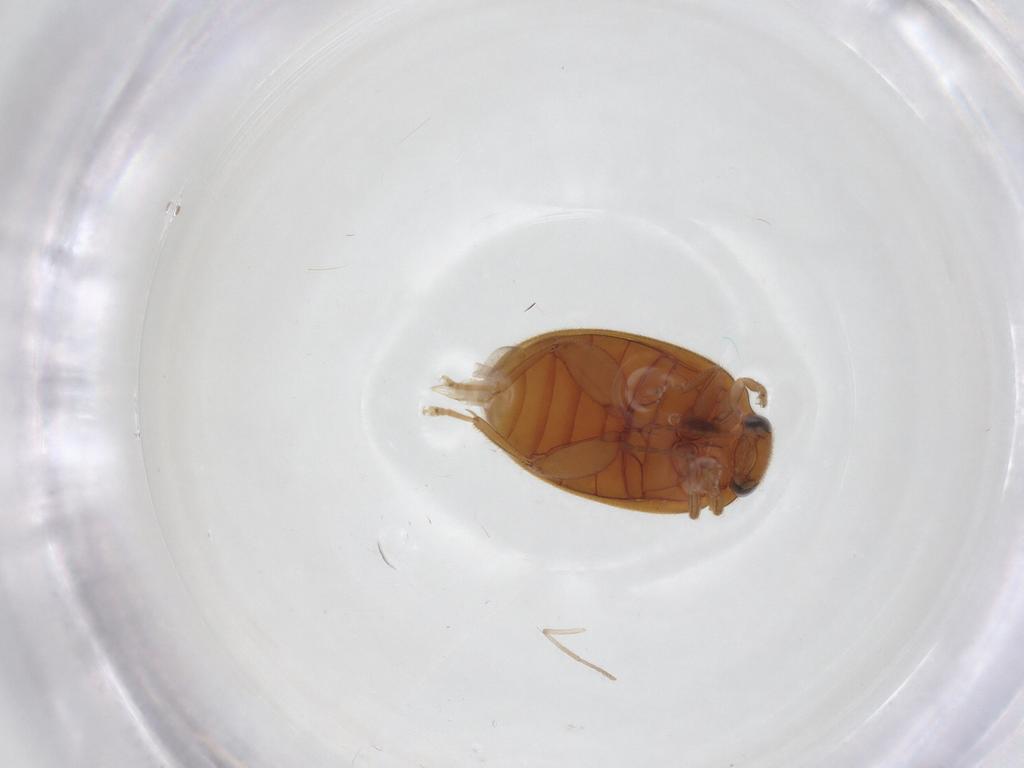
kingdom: Animalia
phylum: Arthropoda
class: Insecta
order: Coleoptera
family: Scirtidae
